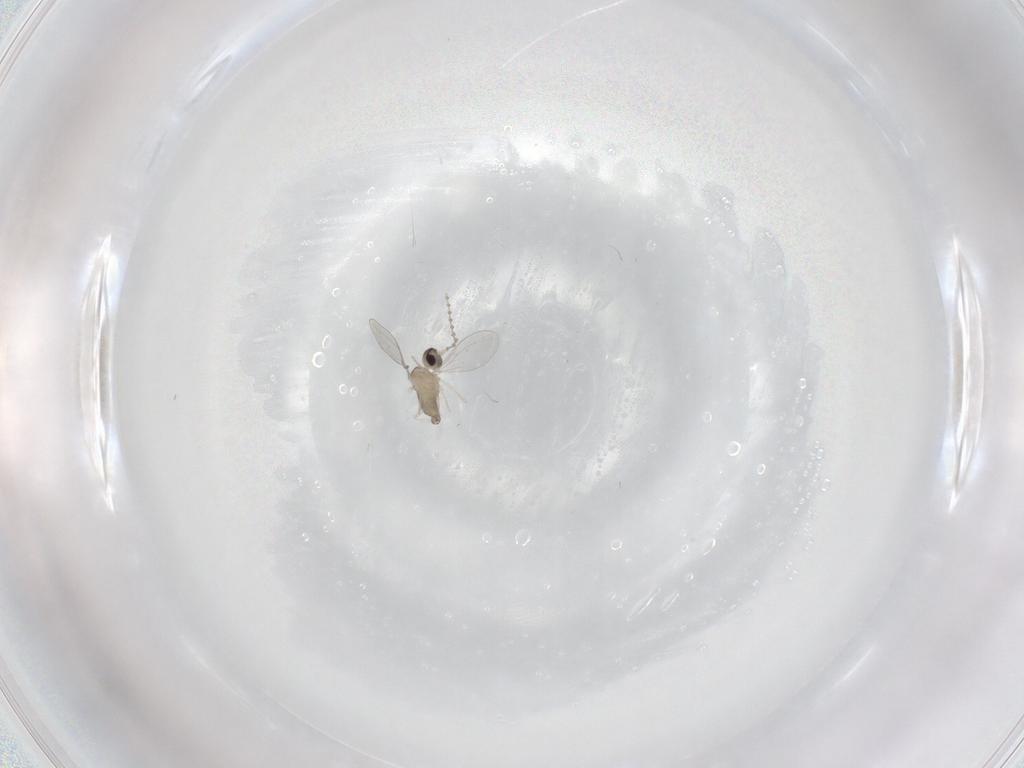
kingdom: Animalia
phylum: Arthropoda
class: Insecta
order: Diptera
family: Cecidomyiidae
